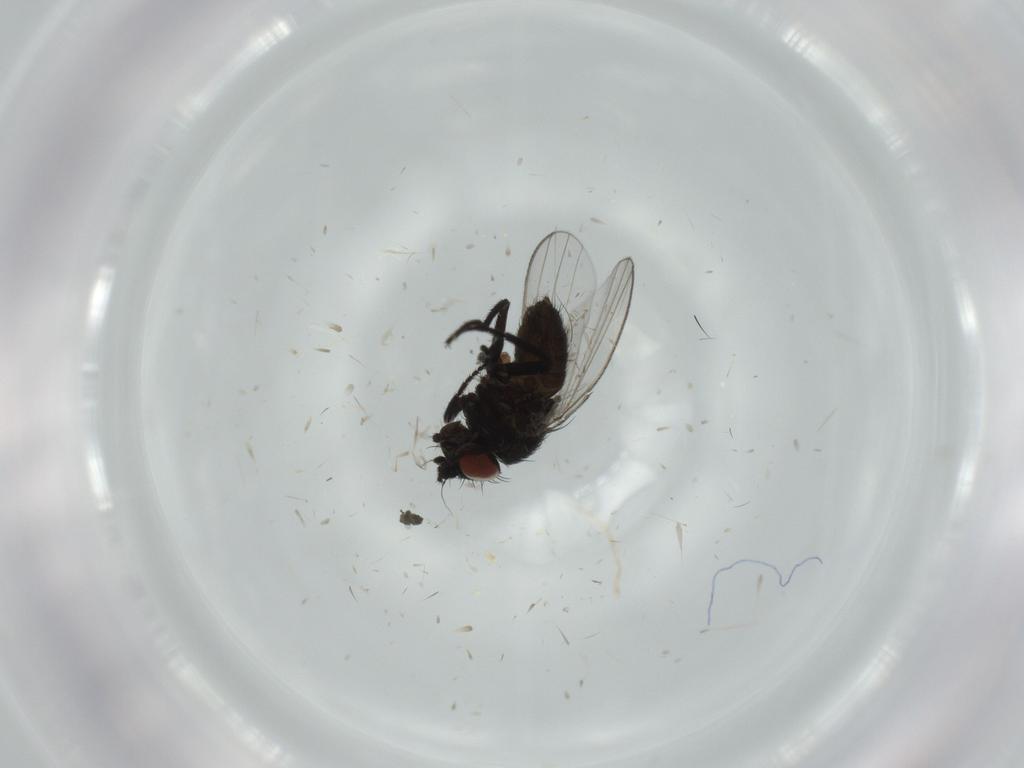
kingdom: Animalia
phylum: Arthropoda
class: Insecta
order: Diptera
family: Milichiidae
